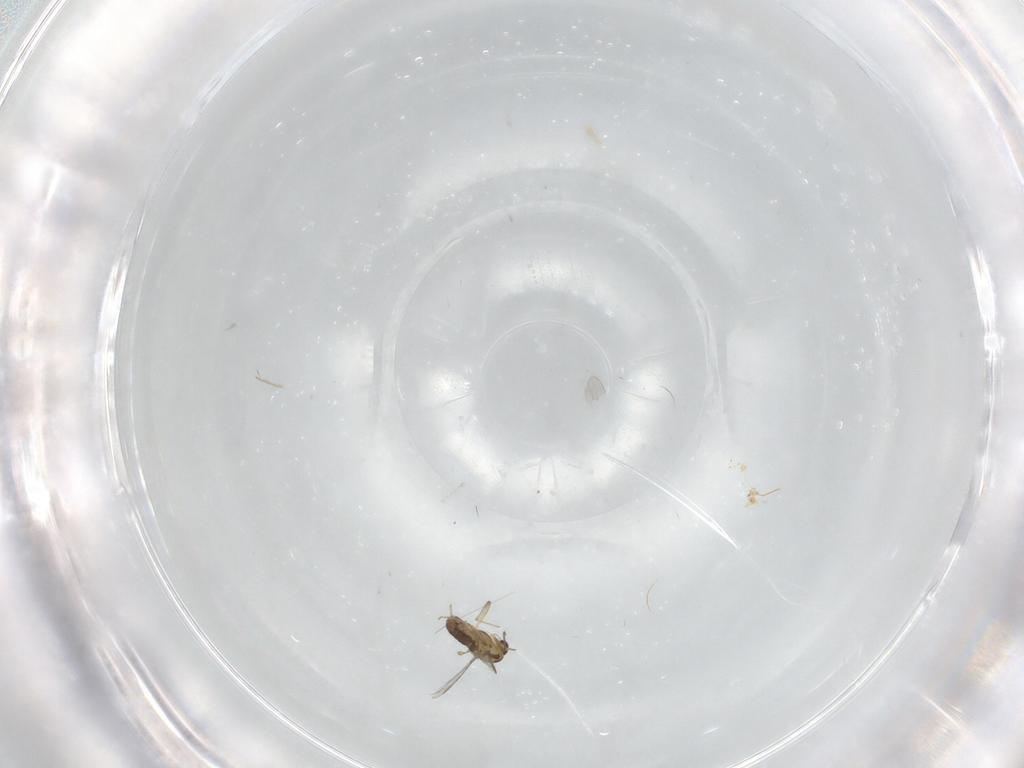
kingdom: Animalia
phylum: Arthropoda
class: Insecta
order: Diptera
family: Chironomidae
